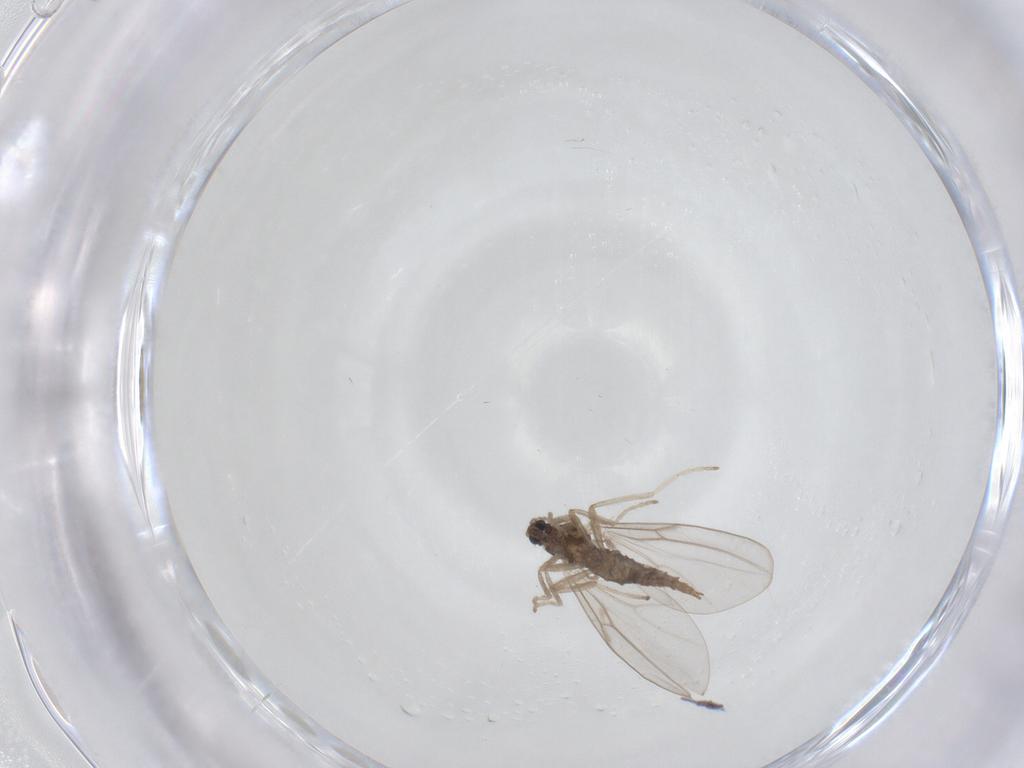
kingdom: Animalia
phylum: Arthropoda
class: Insecta
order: Diptera
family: Cecidomyiidae
